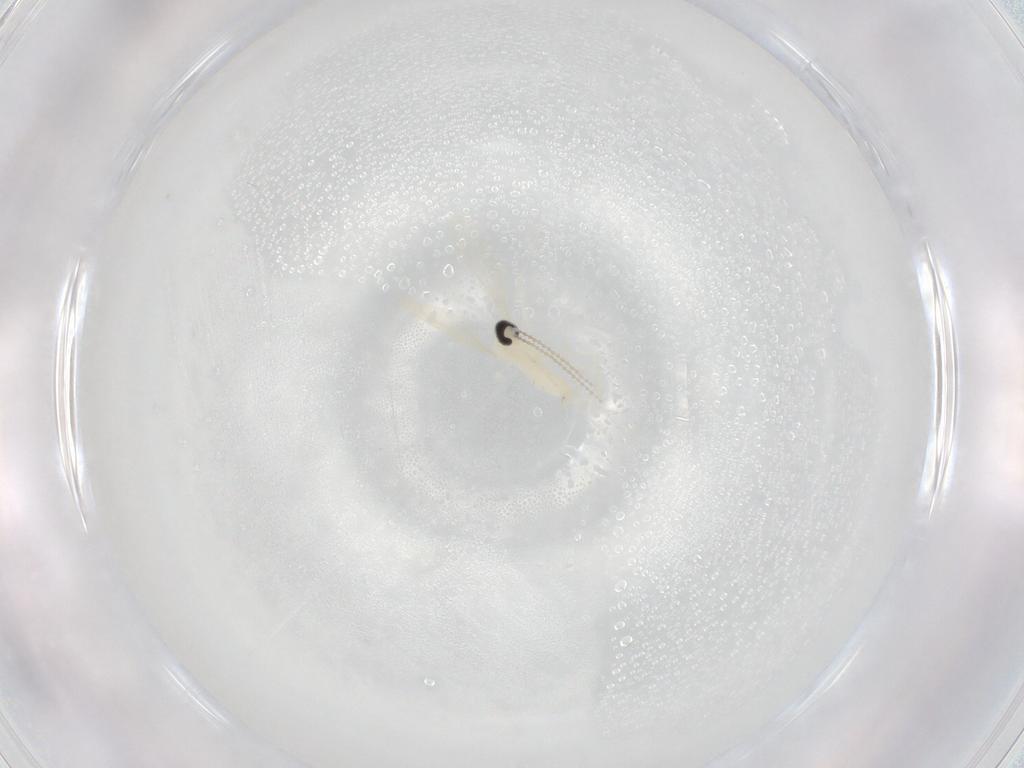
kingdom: Animalia
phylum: Arthropoda
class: Insecta
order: Diptera
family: Cecidomyiidae
